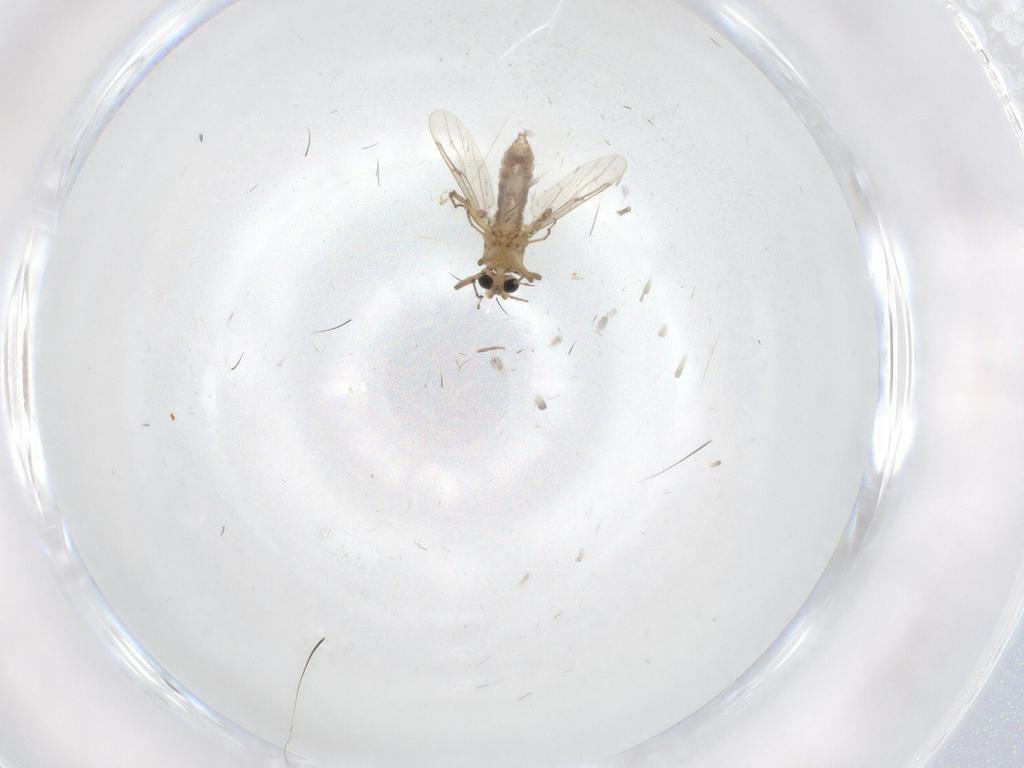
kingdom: Animalia
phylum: Arthropoda
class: Insecta
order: Diptera
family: Ceratopogonidae
